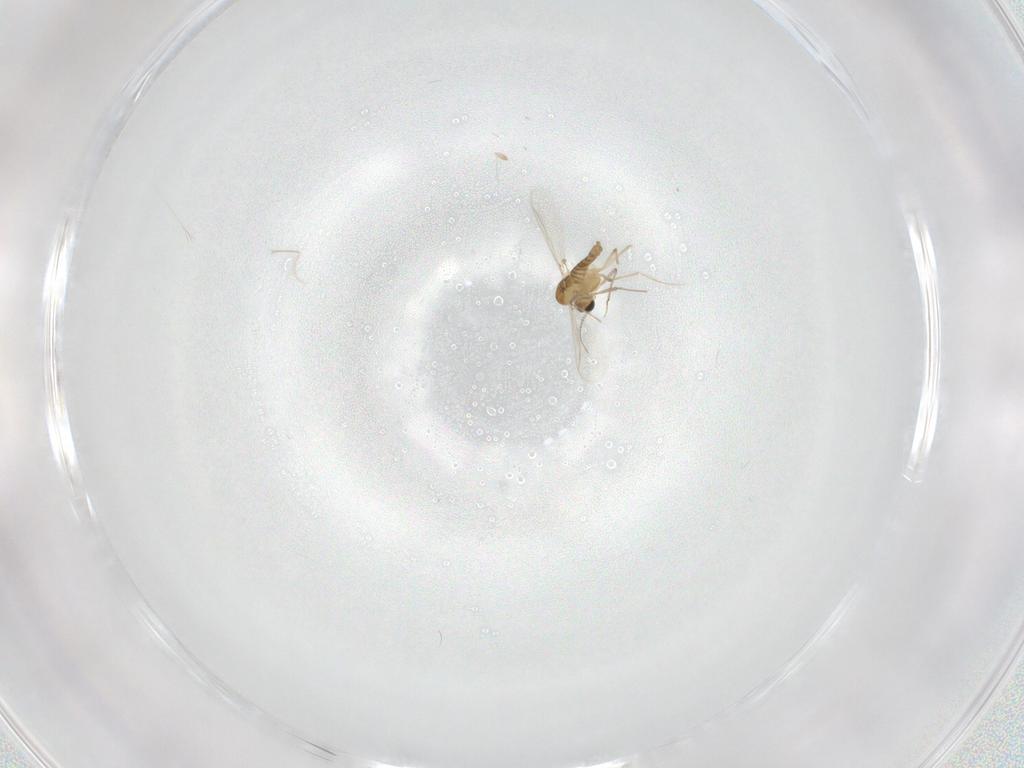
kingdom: Animalia
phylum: Arthropoda
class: Insecta
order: Diptera
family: Chironomidae
